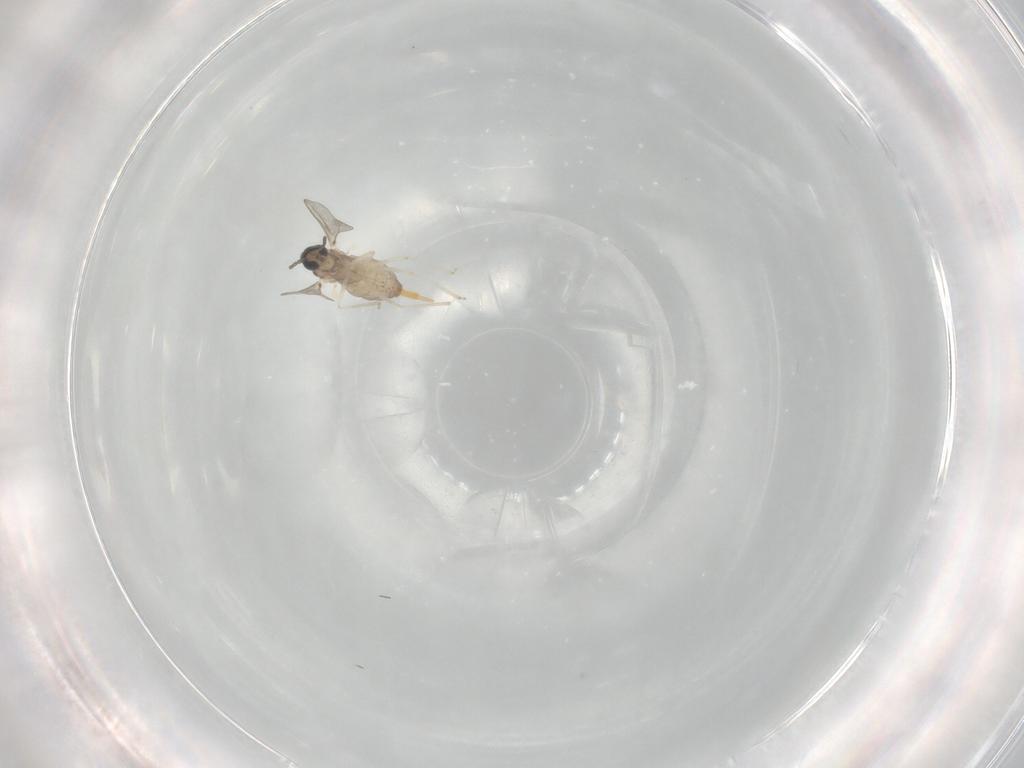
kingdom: Animalia
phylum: Arthropoda
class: Insecta
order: Diptera
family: Cecidomyiidae
